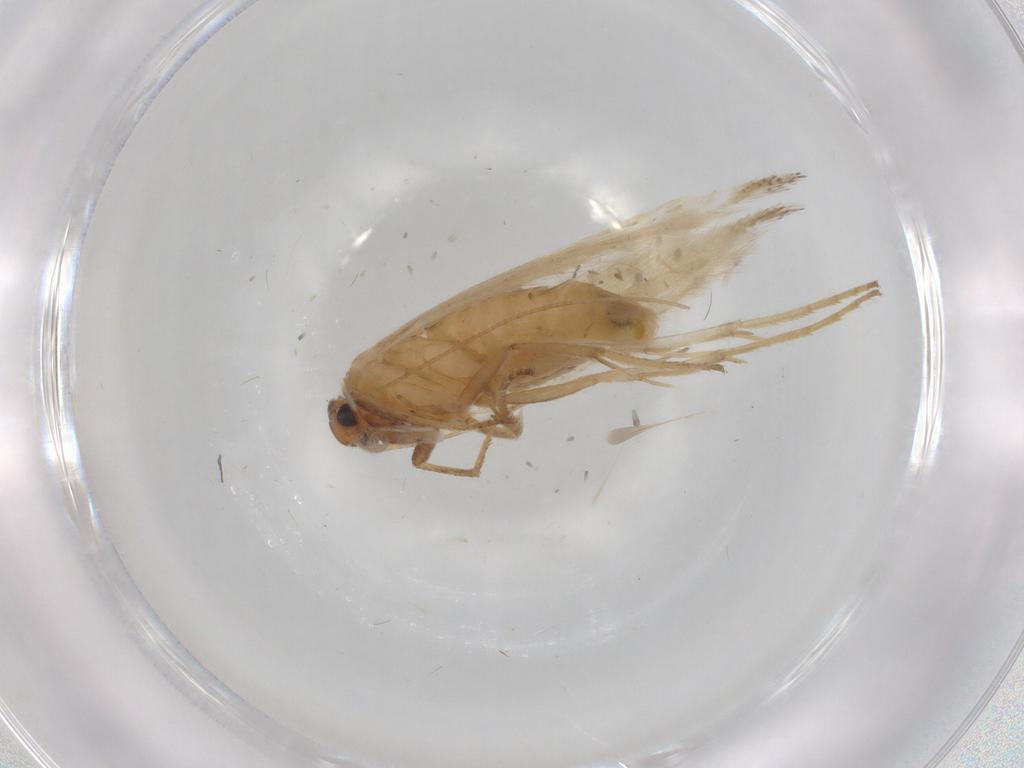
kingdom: Animalia
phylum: Arthropoda
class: Insecta
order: Lepidoptera
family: Gelechiidae
